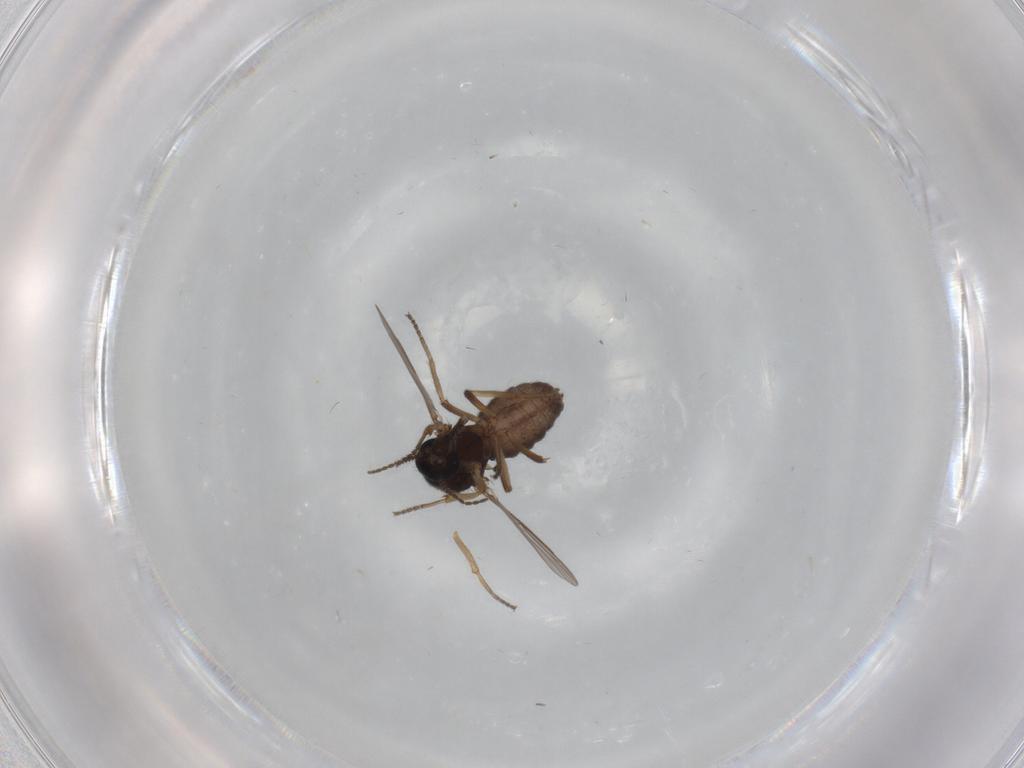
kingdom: Animalia
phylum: Arthropoda
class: Insecta
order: Diptera
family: Ceratopogonidae
